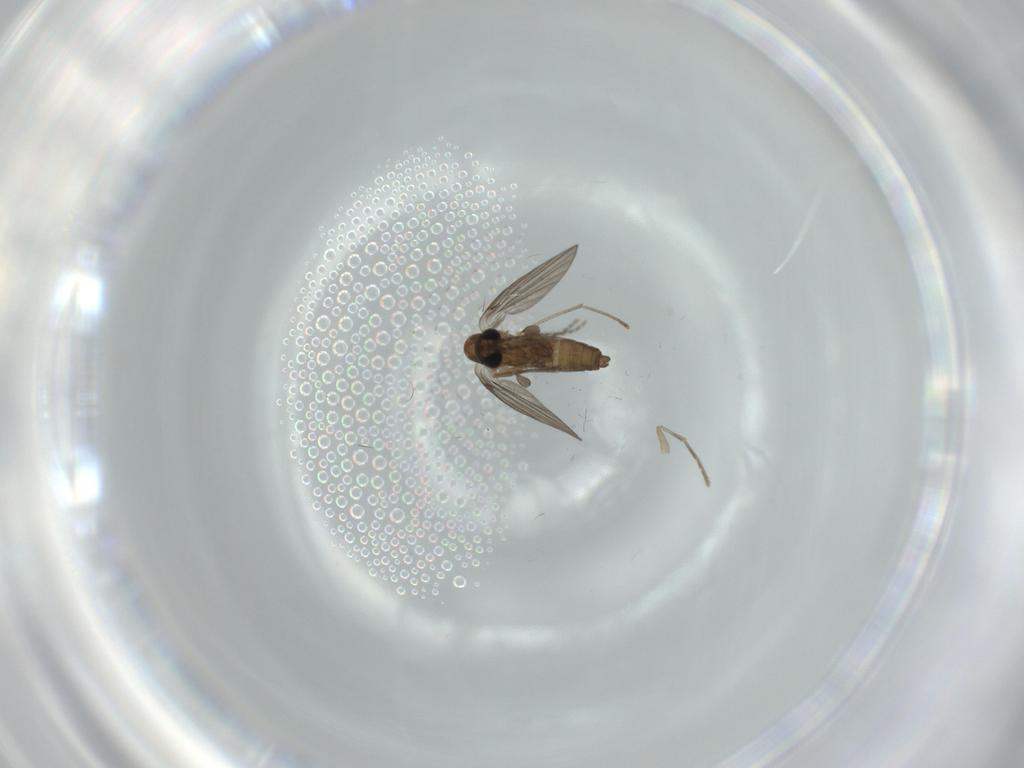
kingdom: Animalia
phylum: Arthropoda
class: Insecta
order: Diptera
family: Psychodidae
